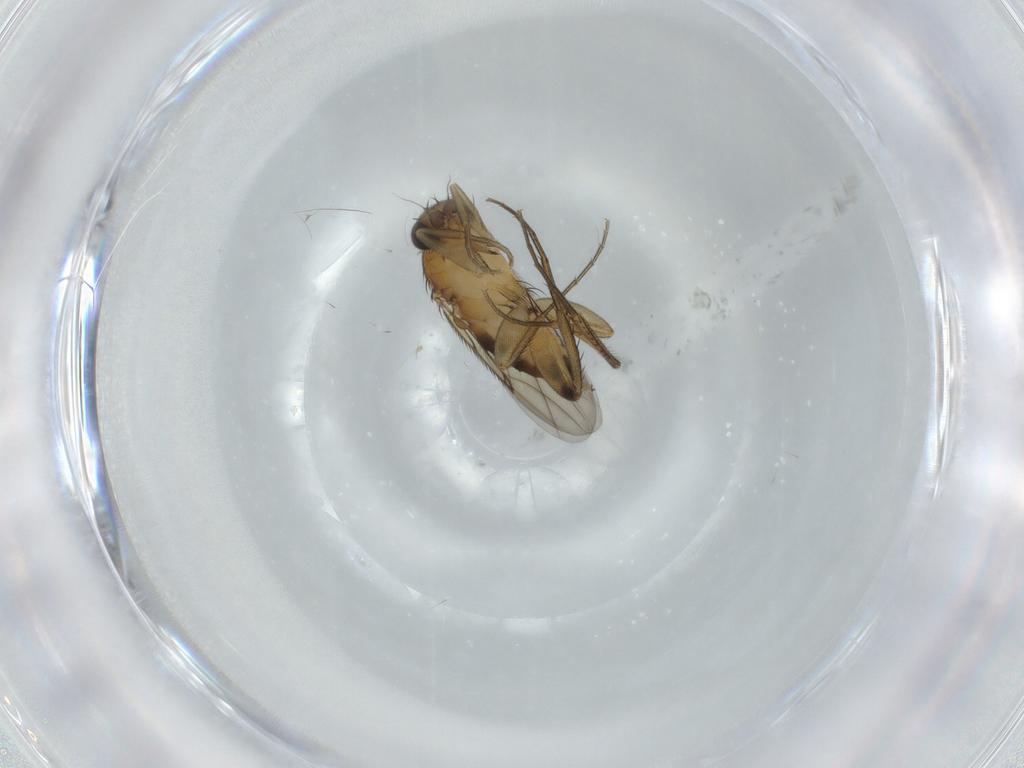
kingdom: Animalia
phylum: Arthropoda
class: Insecta
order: Diptera
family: Phoridae
